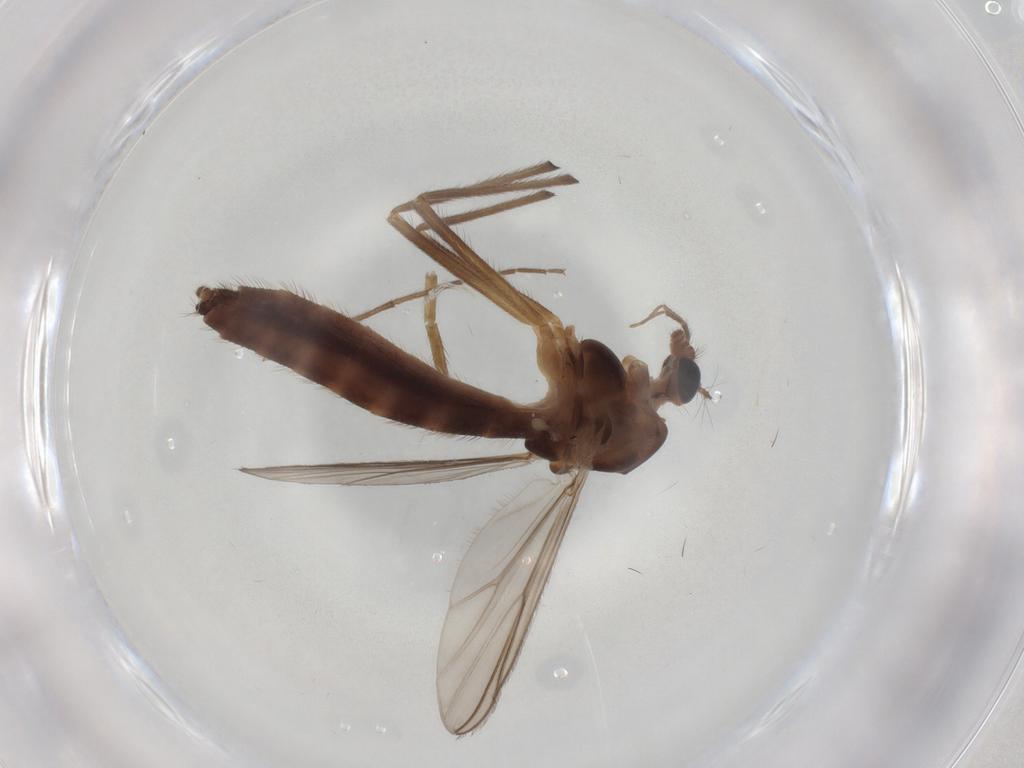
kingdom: Animalia
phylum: Arthropoda
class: Insecta
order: Diptera
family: Chironomidae
